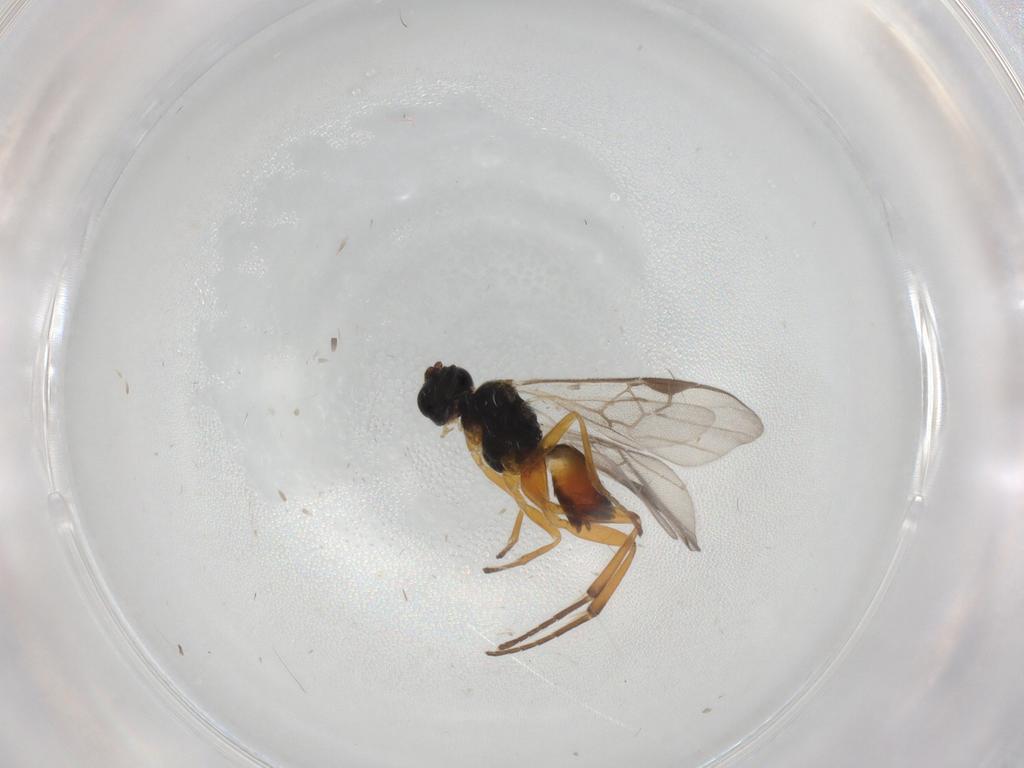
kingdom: Animalia
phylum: Arthropoda
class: Insecta
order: Hymenoptera
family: Braconidae
